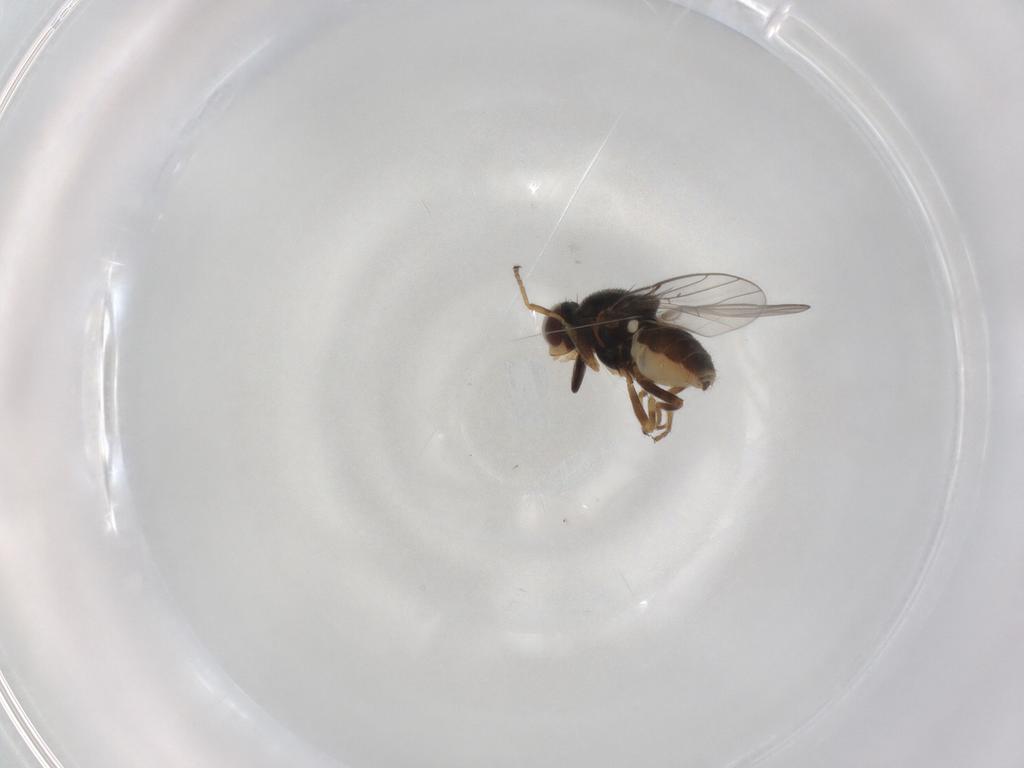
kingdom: Animalia
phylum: Arthropoda
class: Insecta
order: Diptera
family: Chloropidae
